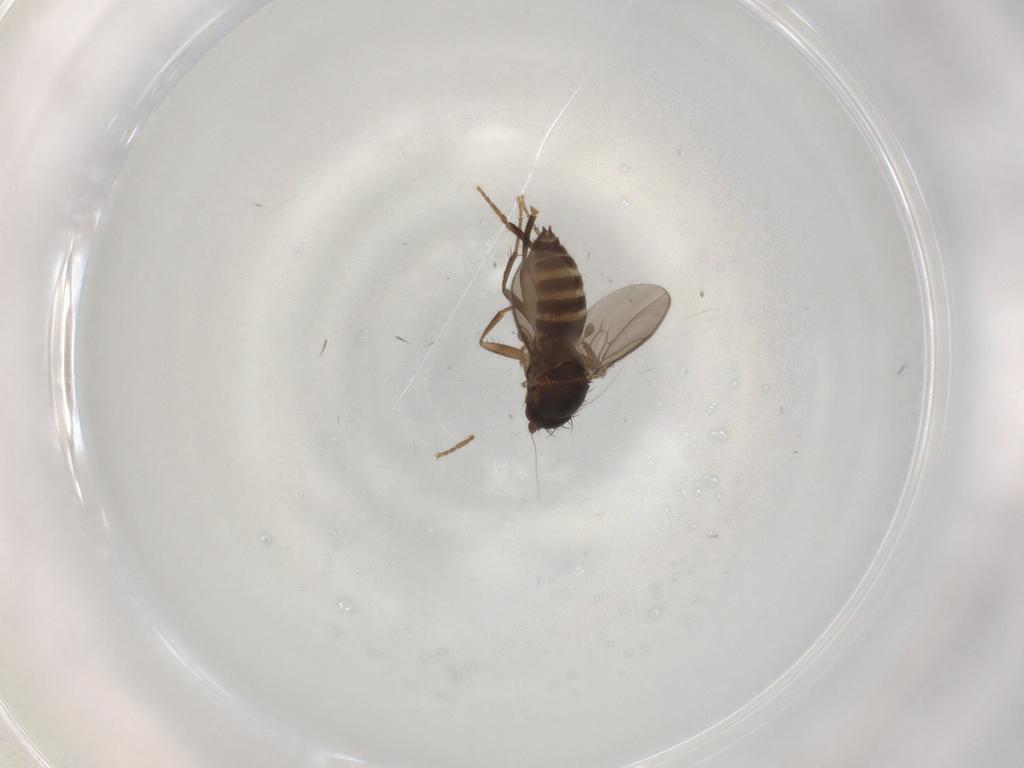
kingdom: Animalia
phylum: Arthropoda
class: Insecta
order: Diptera
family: Sphaeroceridae
